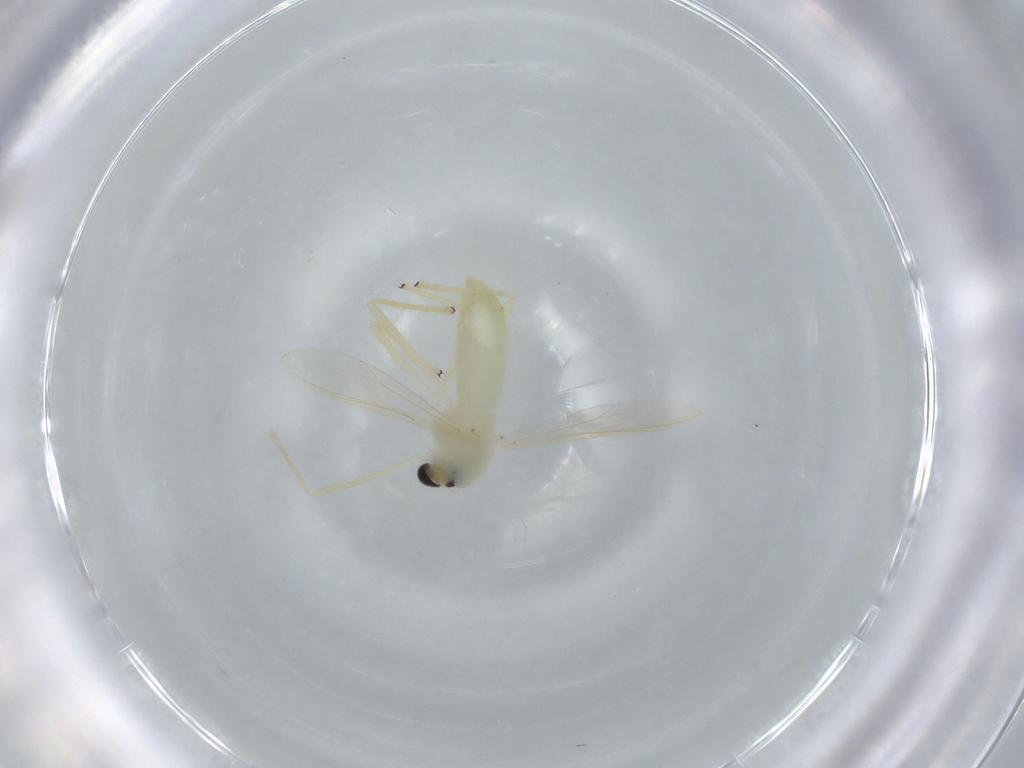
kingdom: Animalia
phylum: Arthropoda
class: Insecta
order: Diptera
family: Chironomidae
